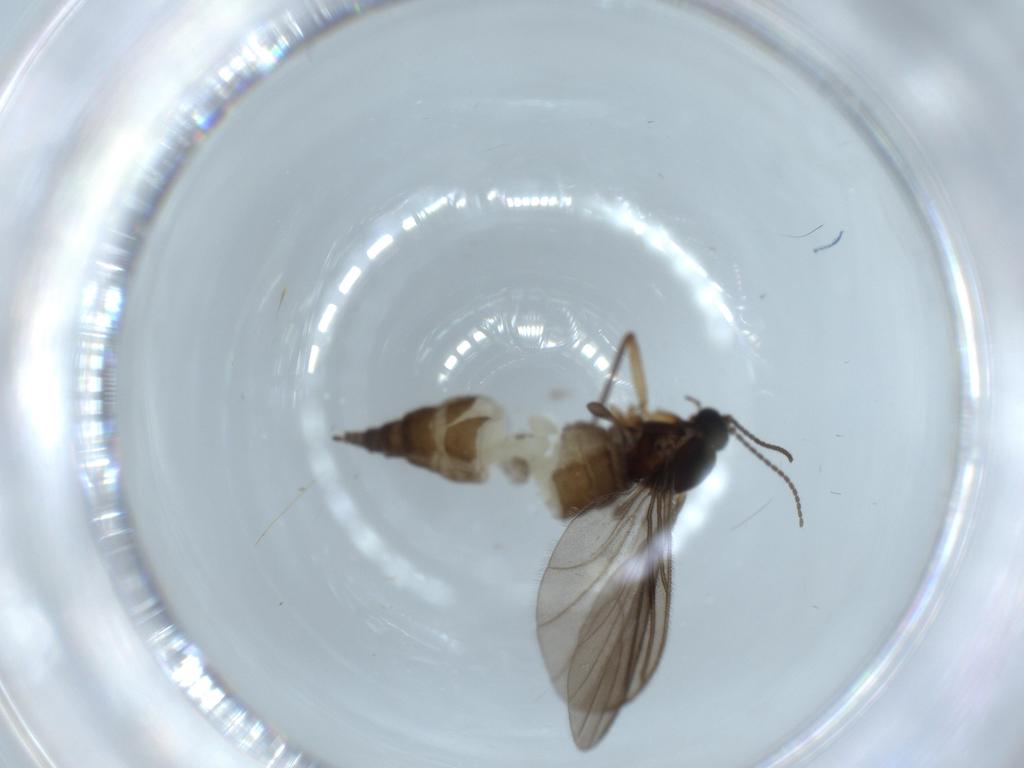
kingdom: Animalia
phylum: Arthropoda
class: Insecta
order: Diptera
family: Sciaridae
